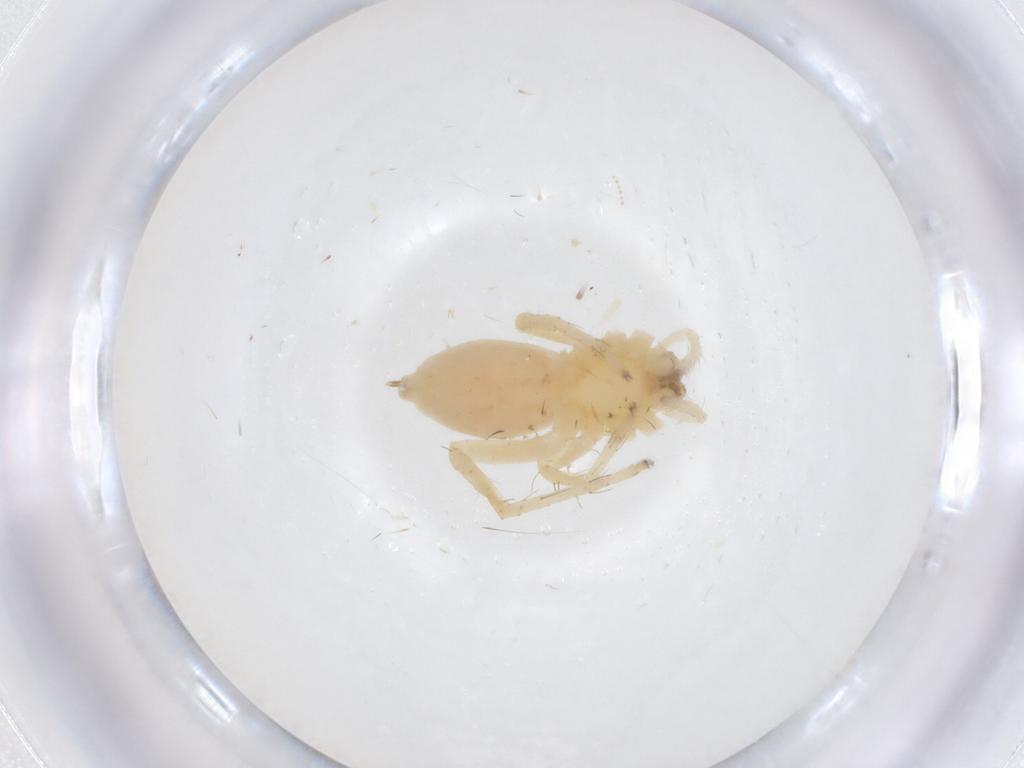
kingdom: Animalia
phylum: Arthropoda
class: Arachnida
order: Araneae
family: Anyphaenidae
